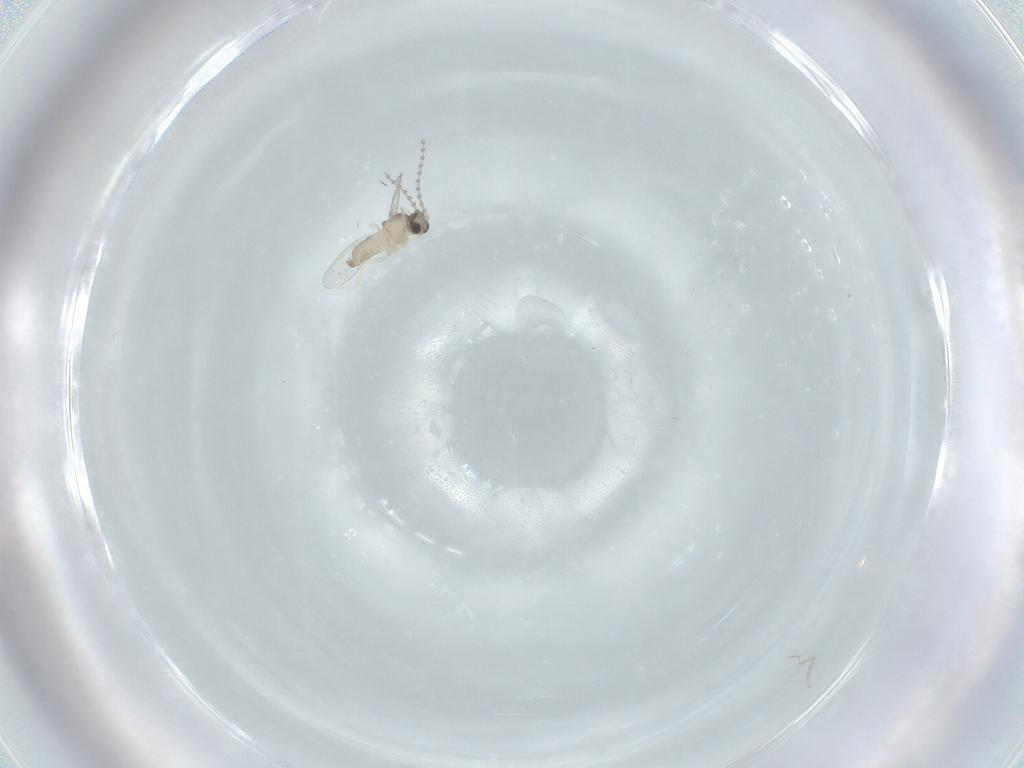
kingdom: Animalia
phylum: Arthropoda
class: Insecta
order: Diptera
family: Cecidomyiidae
